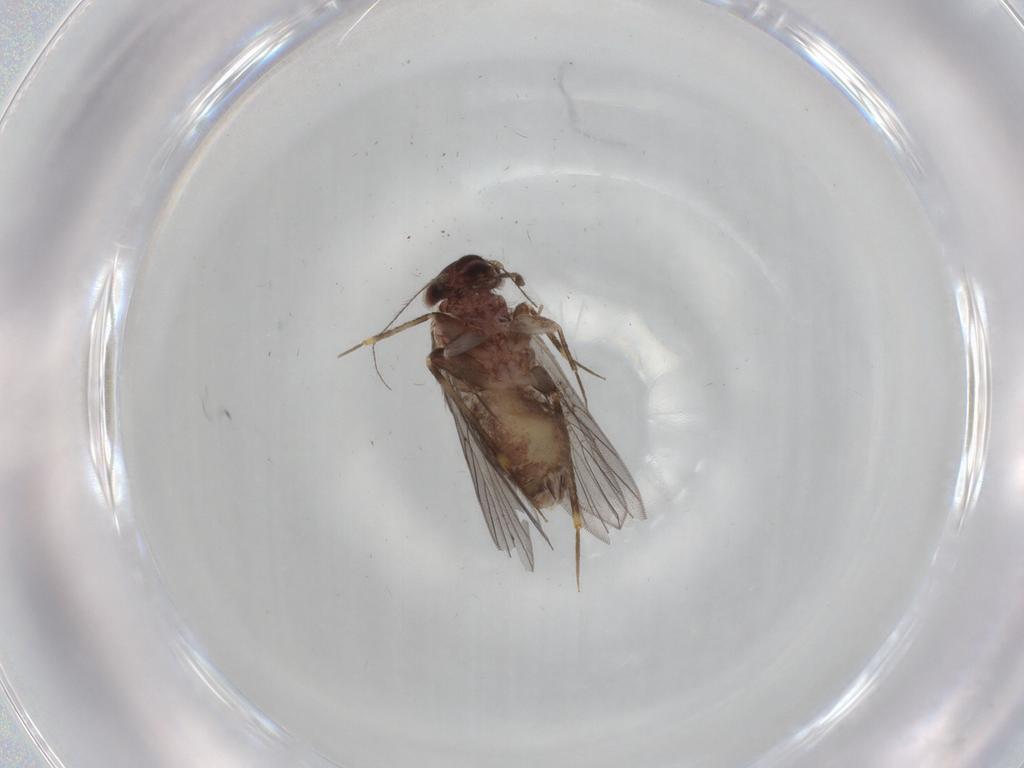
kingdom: Animalia
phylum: Arthropoda
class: Insecta
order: Psocodea
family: Lepidopsocidae
